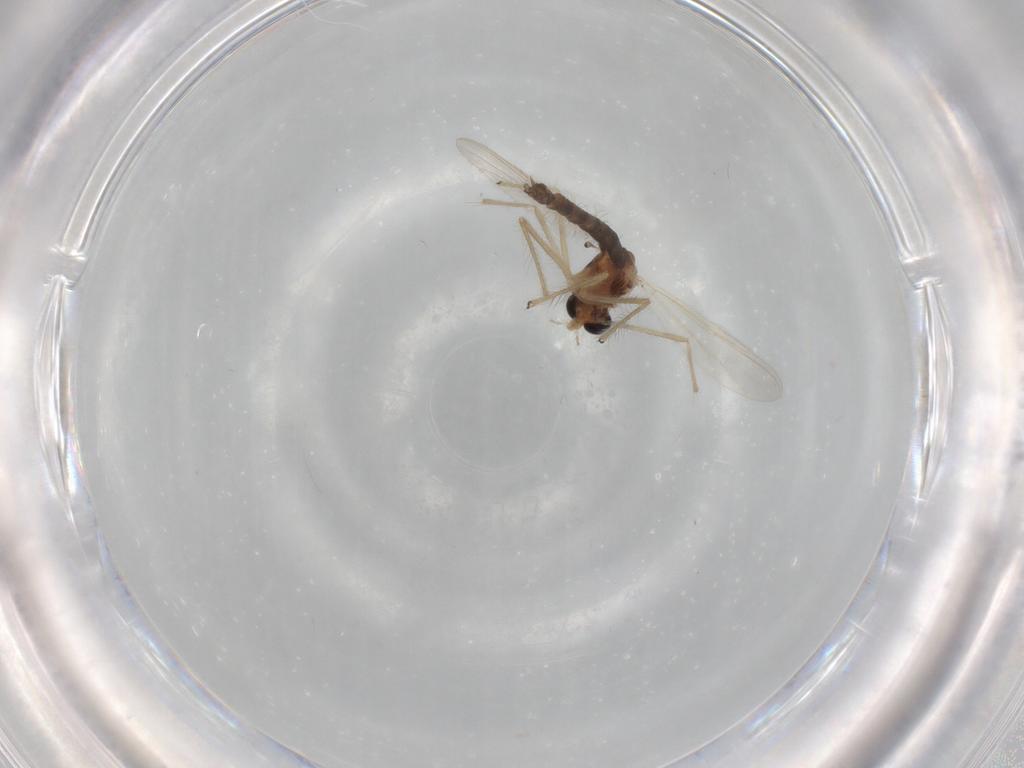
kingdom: Animalia
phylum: Arthropoda
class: Insecta
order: Diptera
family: Chironomidae
